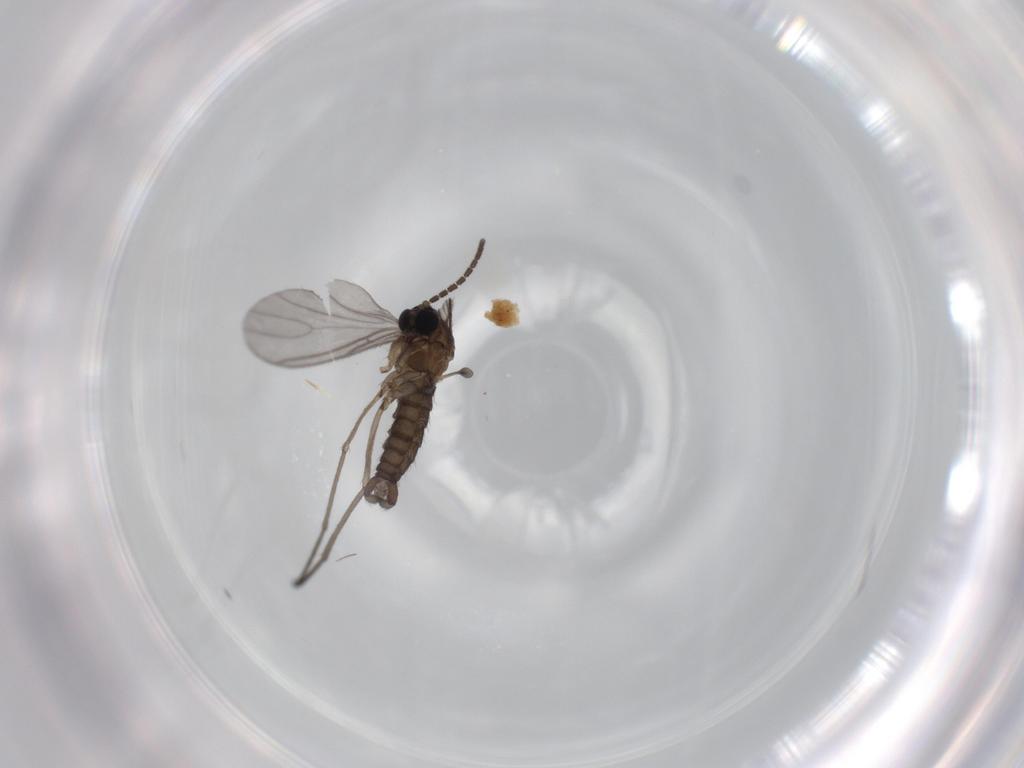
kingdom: Animalia
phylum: Arthropoda
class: Insecta
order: Diptera
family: Sciaridae
